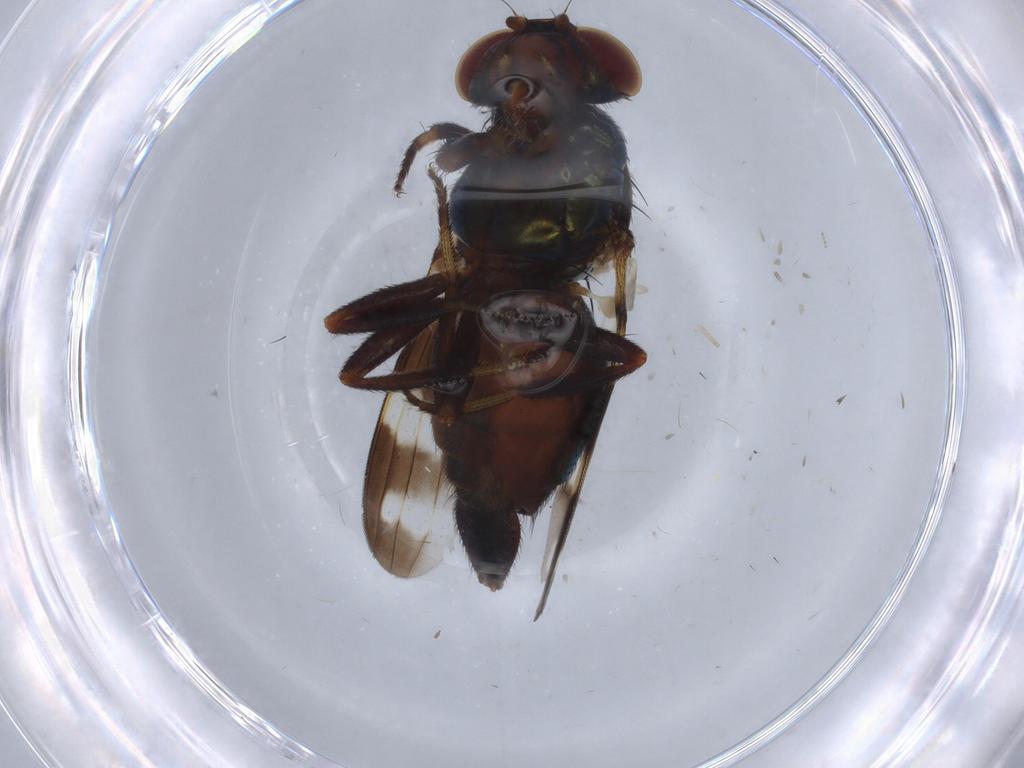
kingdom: Animalia
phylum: Arthropoda
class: Insecta
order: Diptera
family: Ulidiidae
